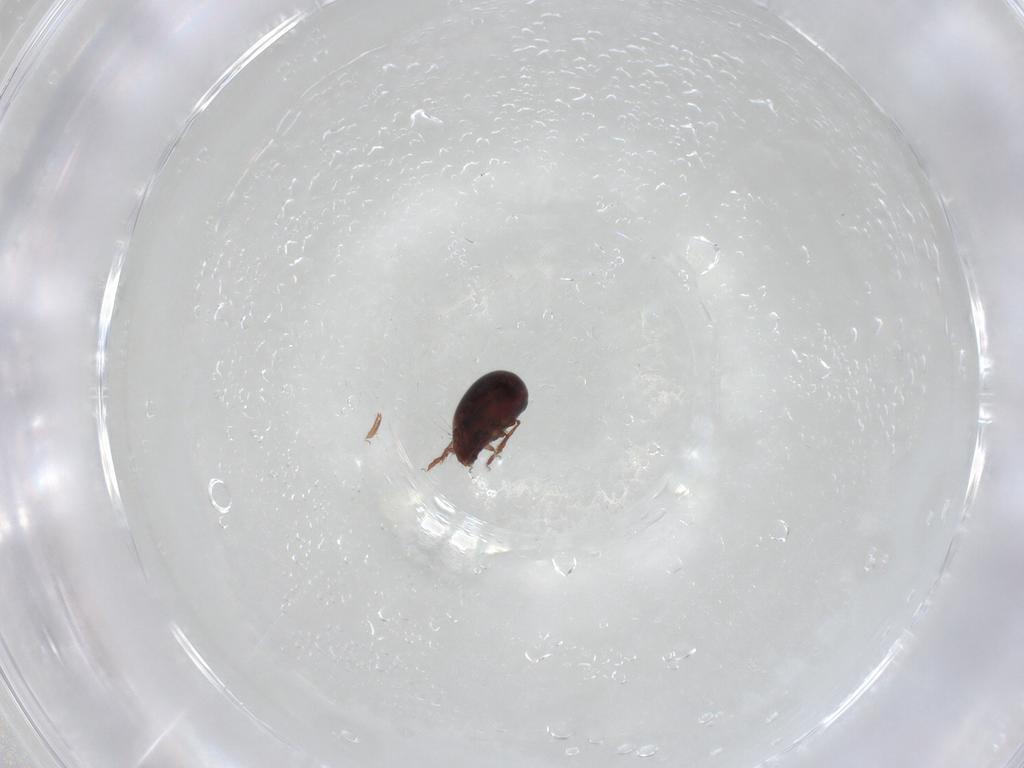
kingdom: Animalia
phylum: Arthropoda
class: Arachnida
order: Sarcoptiformes
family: Humerobatidae
